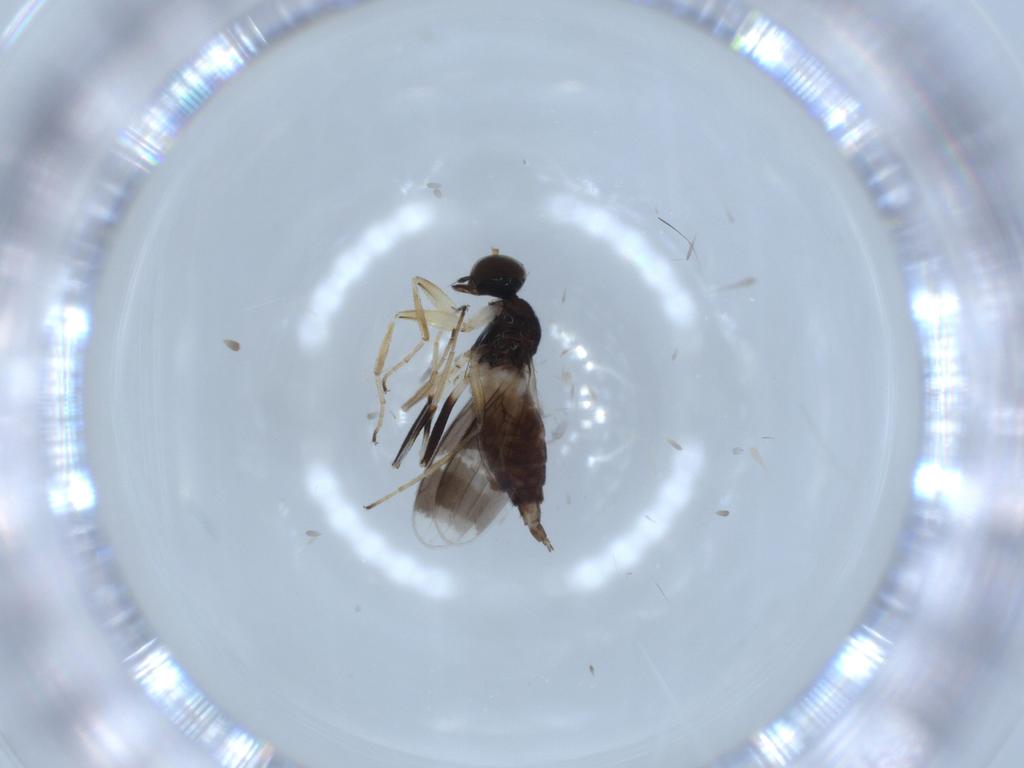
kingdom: Animalia
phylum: Arthropoda
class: Insecta
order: Diptera
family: Hybotidae
